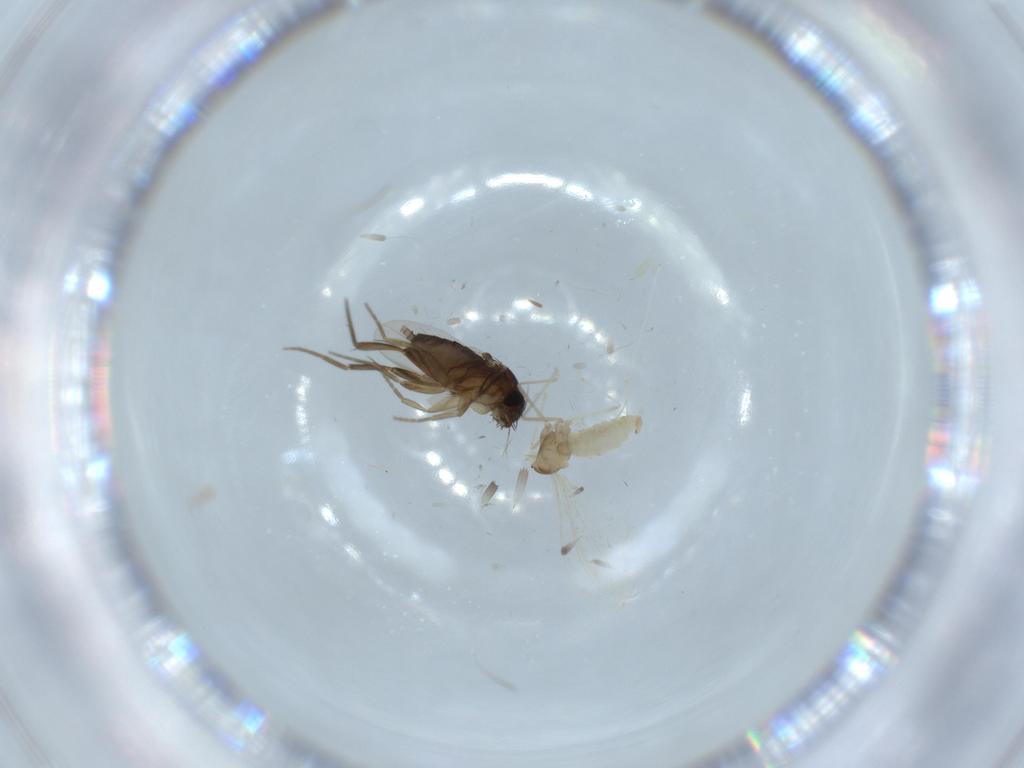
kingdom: Animalia
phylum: Arthropoda
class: Insecta
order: Diptera
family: Cecidomyiidae
